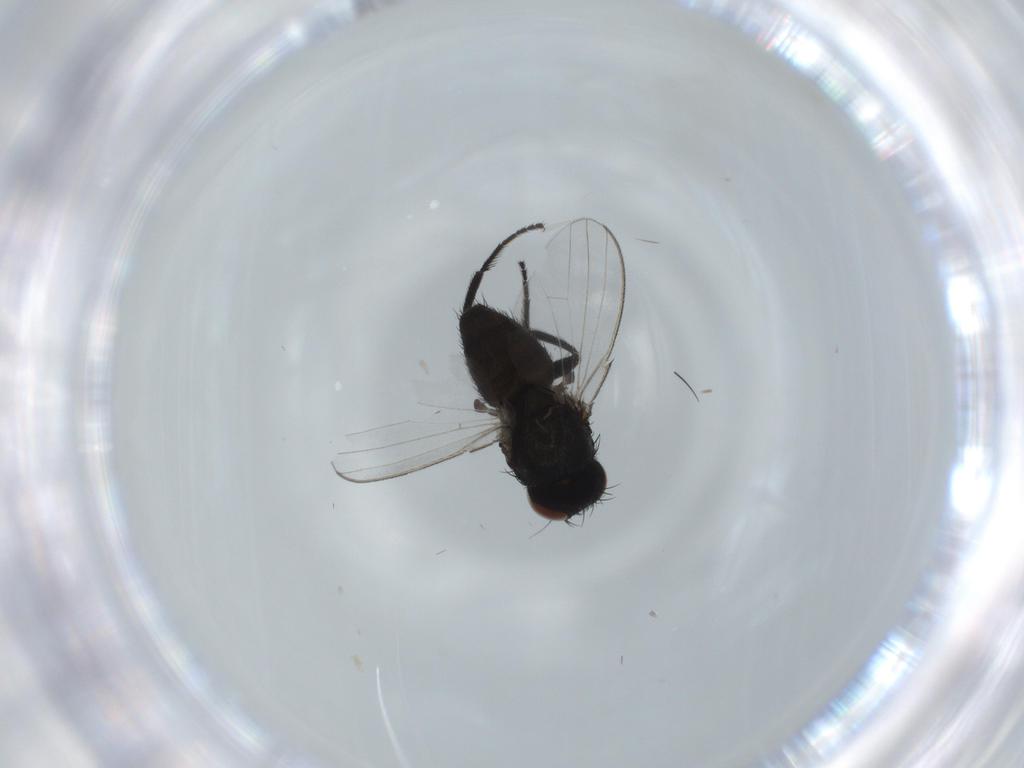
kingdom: Animalia
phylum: Arthropoda
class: Insecta
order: Diptera
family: Milichiidae
